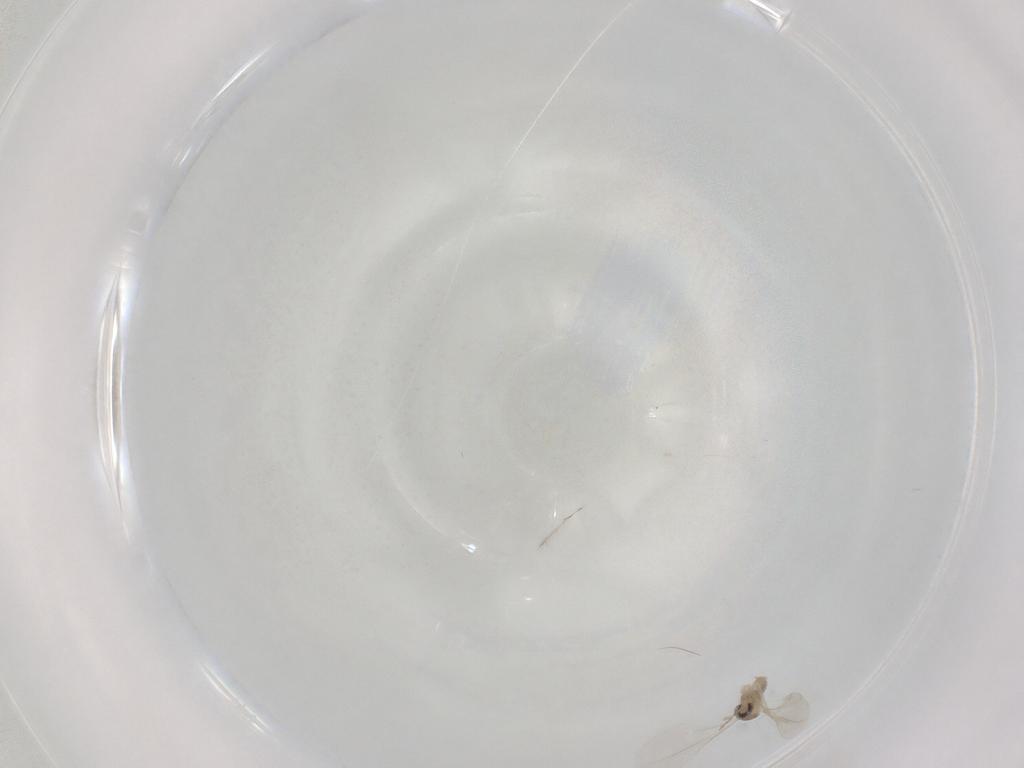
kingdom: Animalia
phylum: Arthropoda
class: Insecta
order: Diptera
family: Cecidomyiidae
